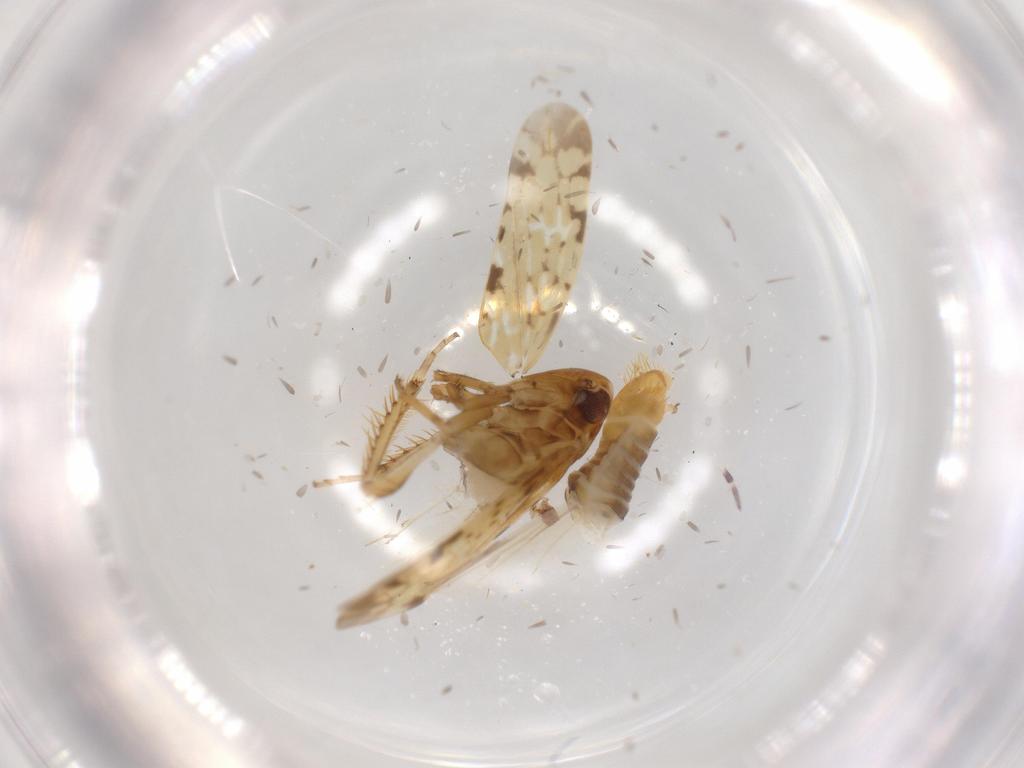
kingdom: Animalia
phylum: Arthropoda
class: Insecta
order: Hemiptera
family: Cicadellidae
